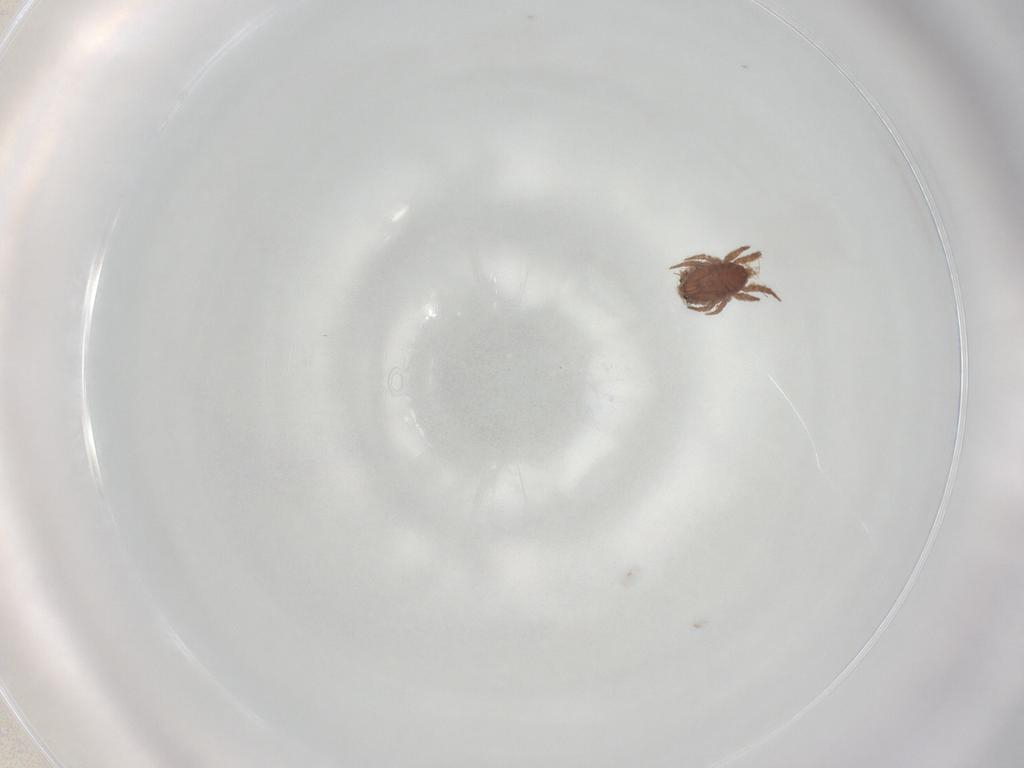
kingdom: Animalia
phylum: Arthropoda
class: Arachnida
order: Sarcoptiformes
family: Crotoniidae
